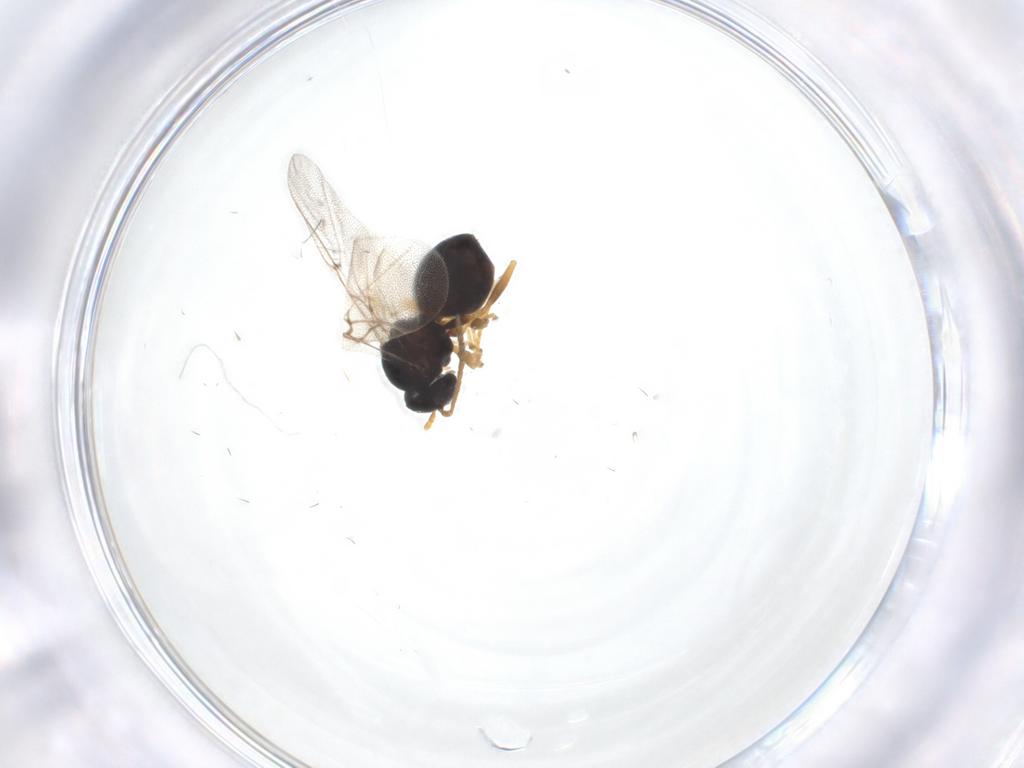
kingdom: Animalia
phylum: Arthropoda
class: Insecta
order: Hymenoptera
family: Cynipidae
